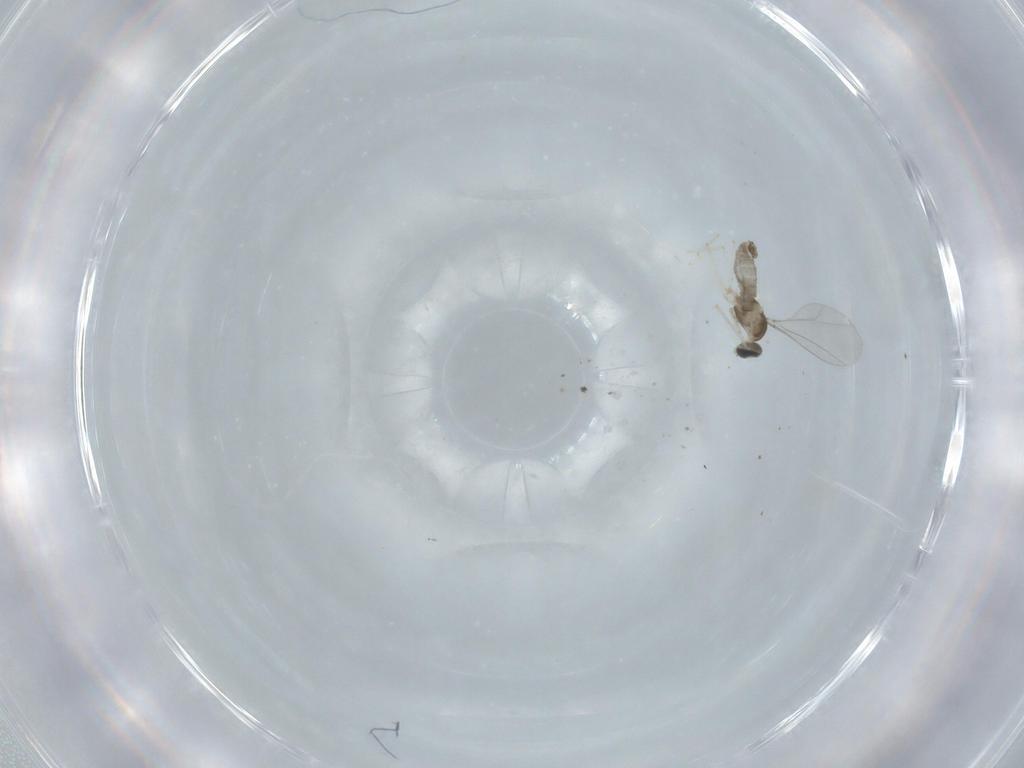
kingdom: Animalia
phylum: Arthropoda
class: Insecta
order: Diptera
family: Cecidomyiidae
